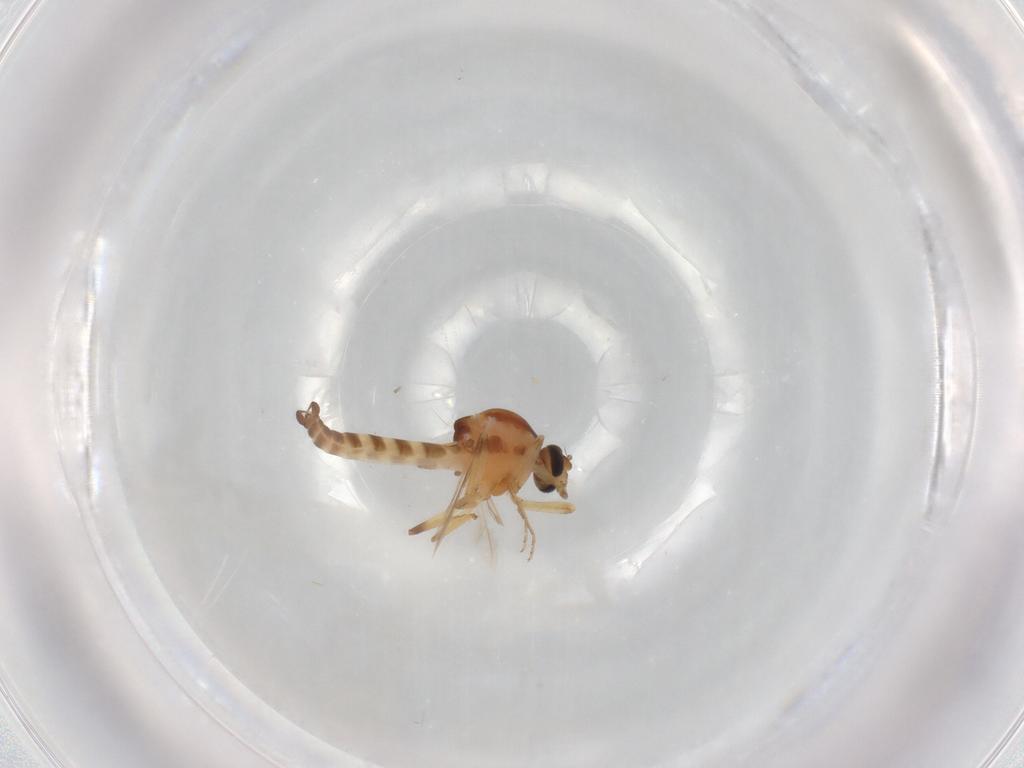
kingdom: Animalia
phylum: Arthropoda
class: Insecta
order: Diptera
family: Ceratopogonidae
